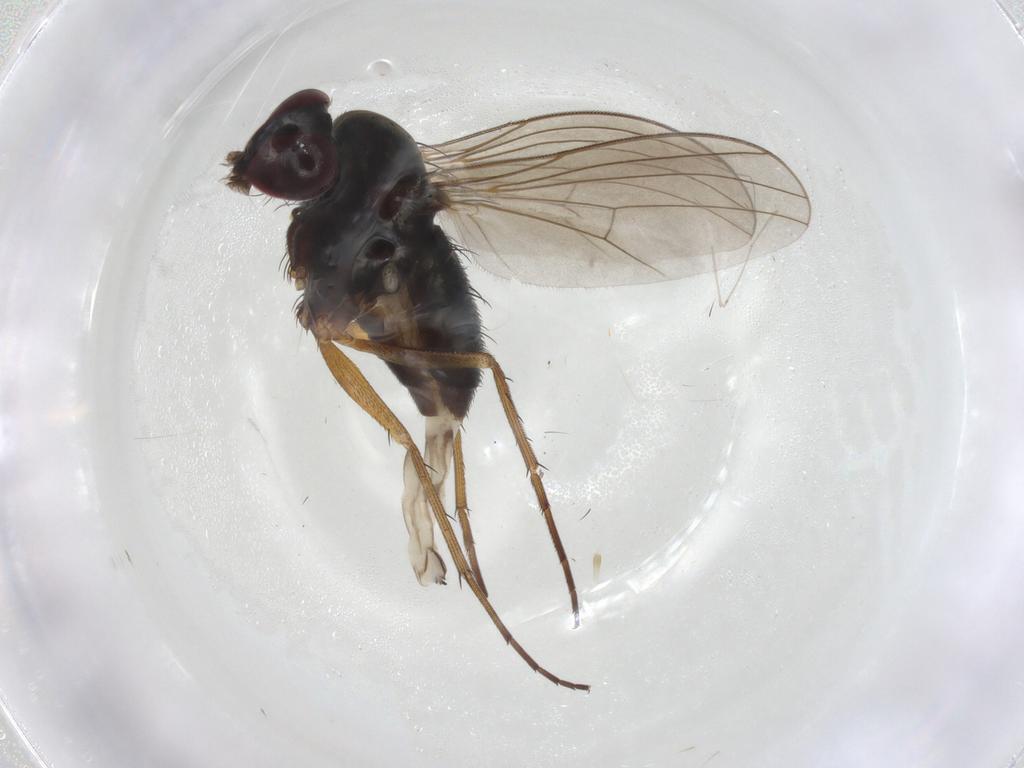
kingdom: Animalia
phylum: Arthropoda
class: Insecta
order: Diptera
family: Dolichopodidae
